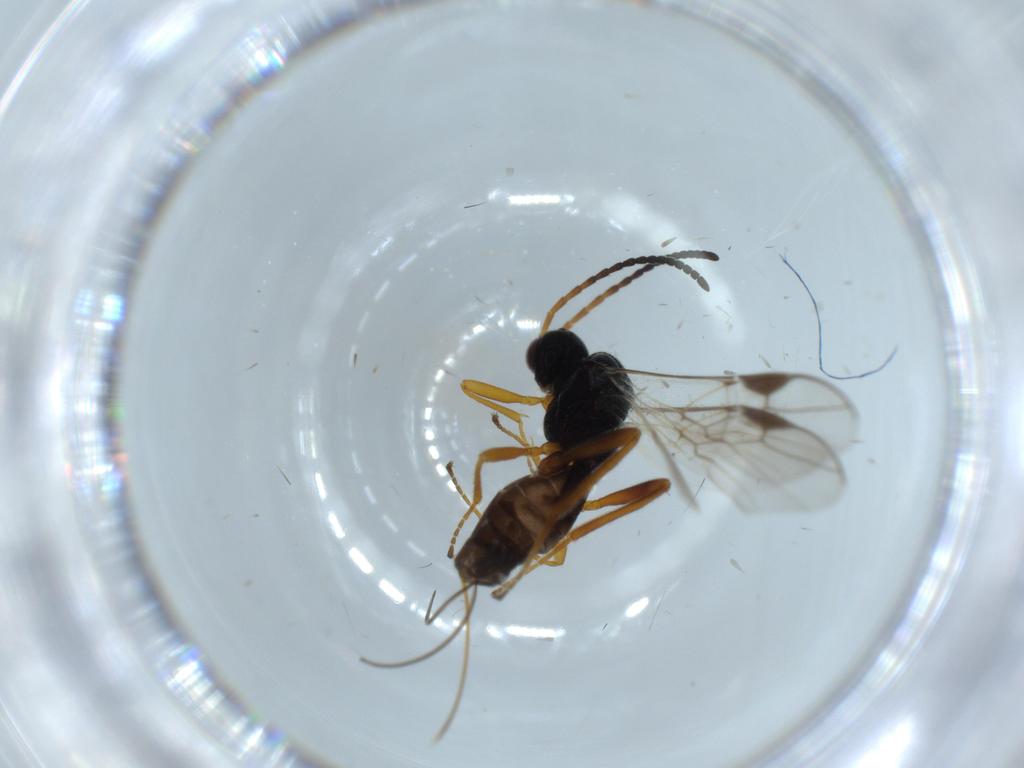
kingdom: Animalia
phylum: Arthropoda
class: Insecta
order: Hymenoptera
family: Braconidae
